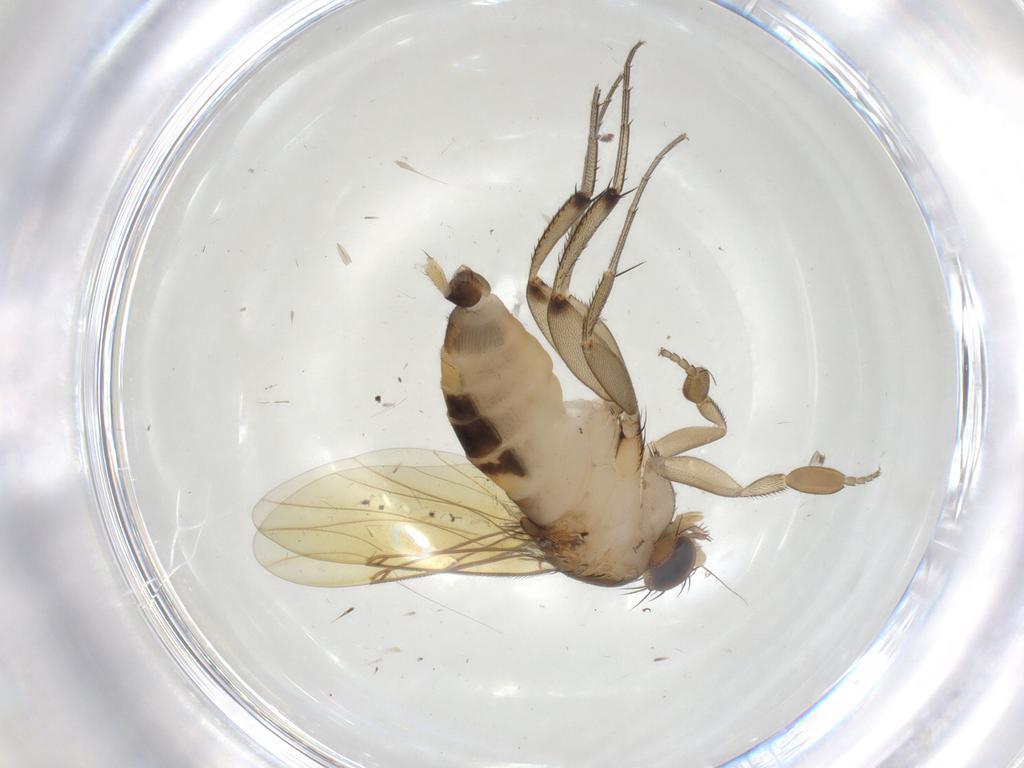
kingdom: Animalia
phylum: Arthropoda
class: Insecta
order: Diptera
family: Phoridae
